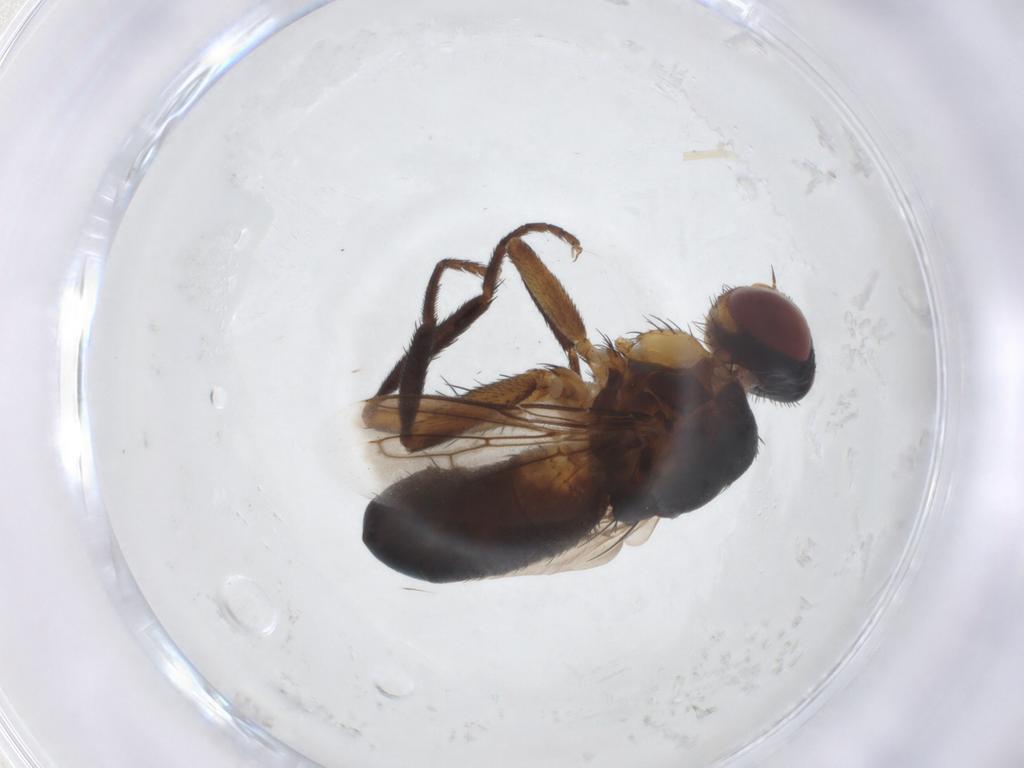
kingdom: Animalia
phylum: Arthropoda
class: Insecta
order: Diptera
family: Tachinidae
